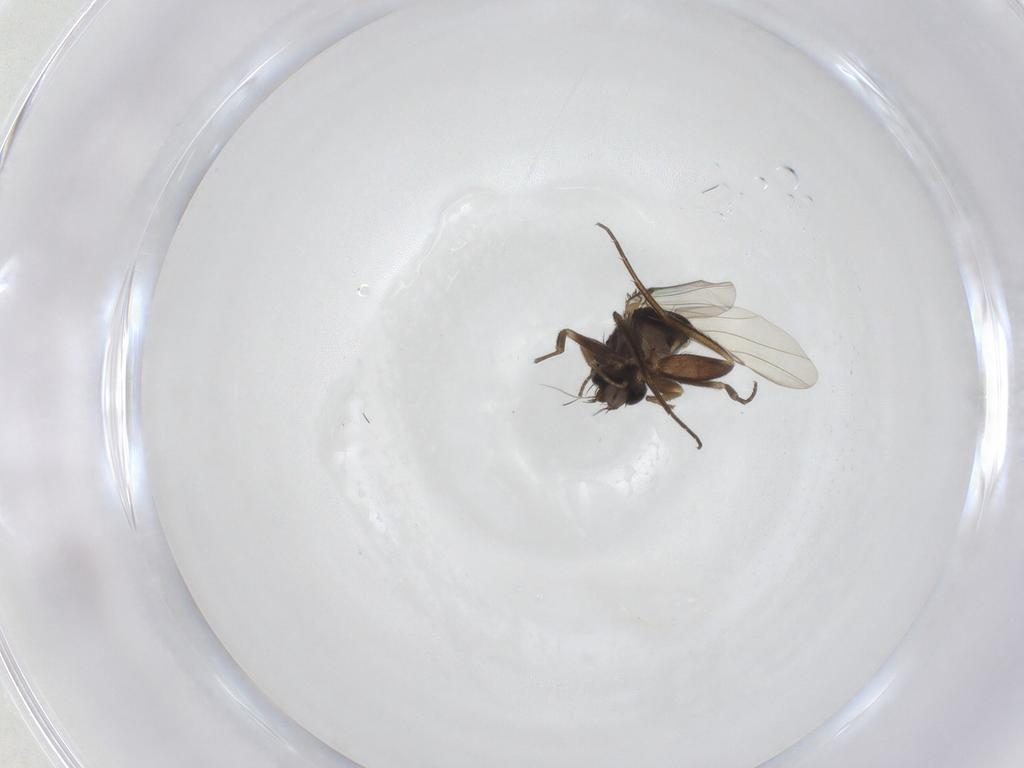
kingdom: Animalia
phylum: Arthropoda
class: Insecta
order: Diptera
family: Phoridae
